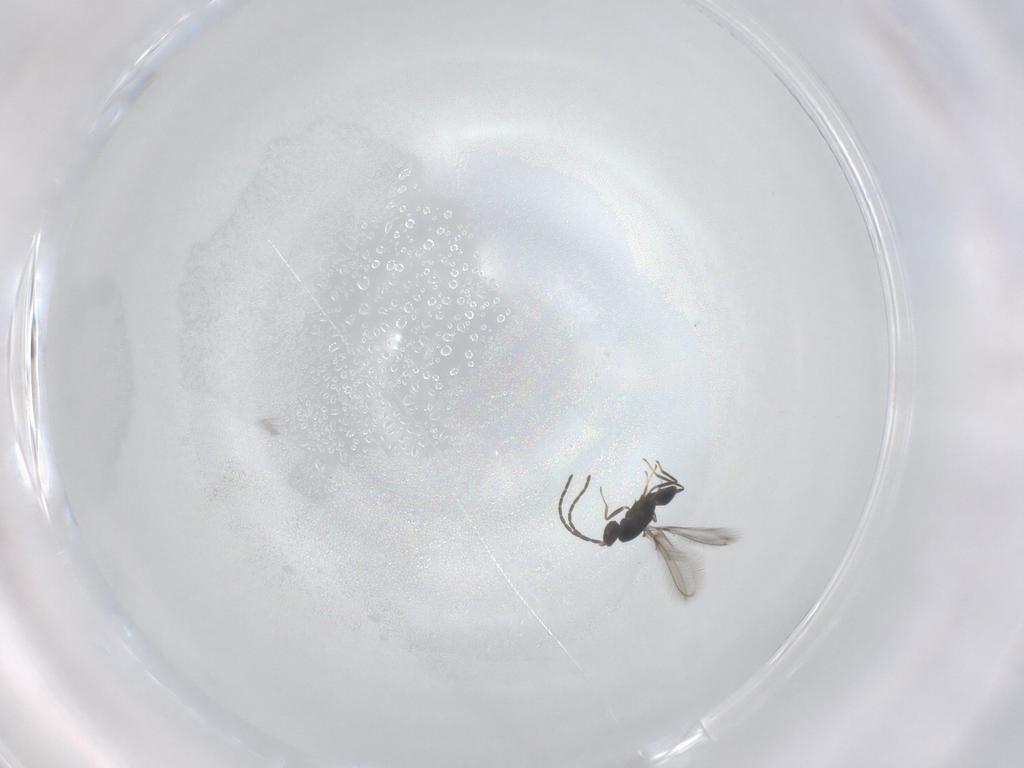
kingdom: Animalia
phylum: Arthropoda
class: Insecta
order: Hymenoptera
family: Mymaridae
